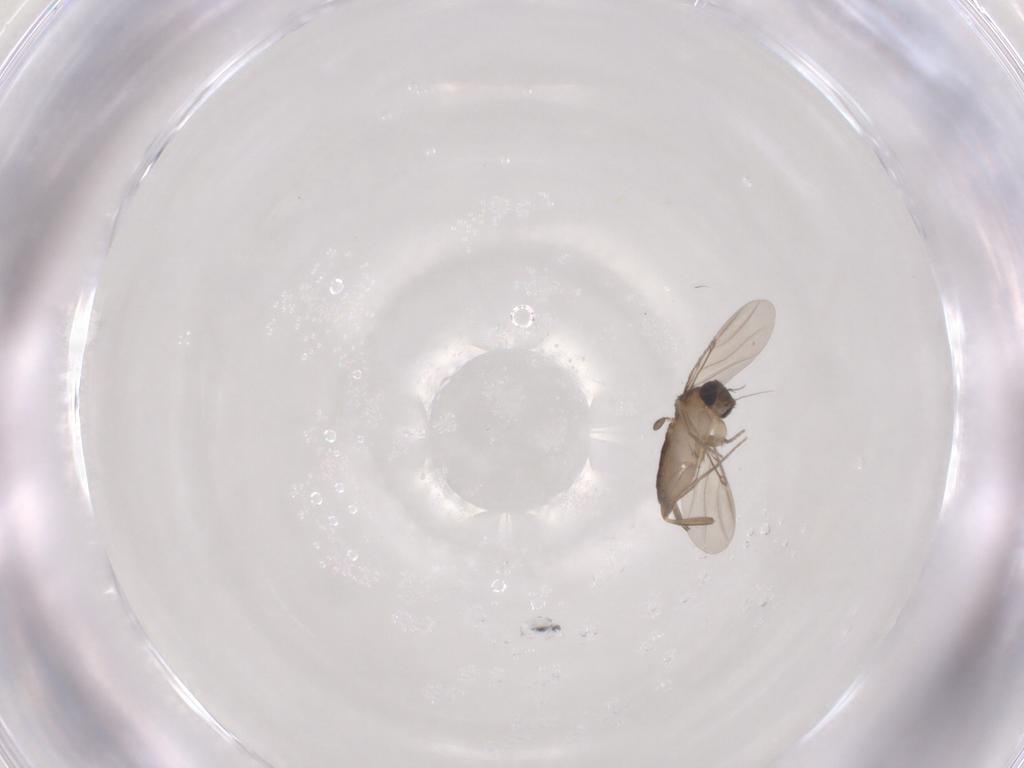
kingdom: Animalia
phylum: Arthropoda
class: Insecta
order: Diptera
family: Phoridae
